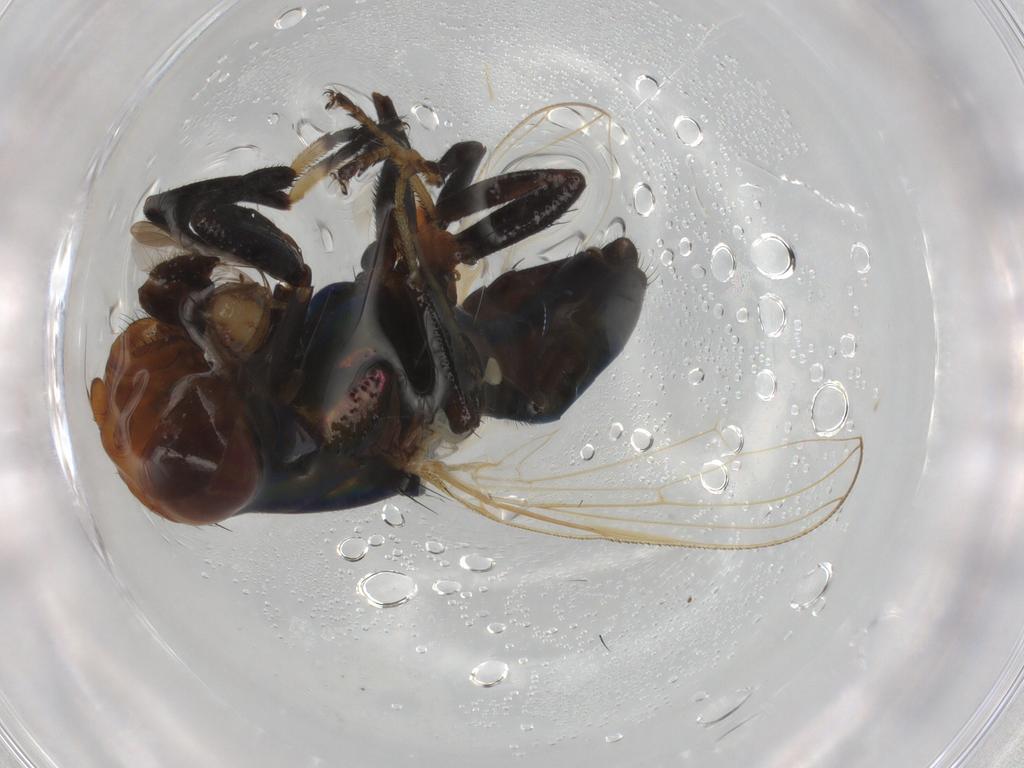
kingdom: Animalia
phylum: Arthropoda
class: Insecta
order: Diptera
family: Ulidiidae
